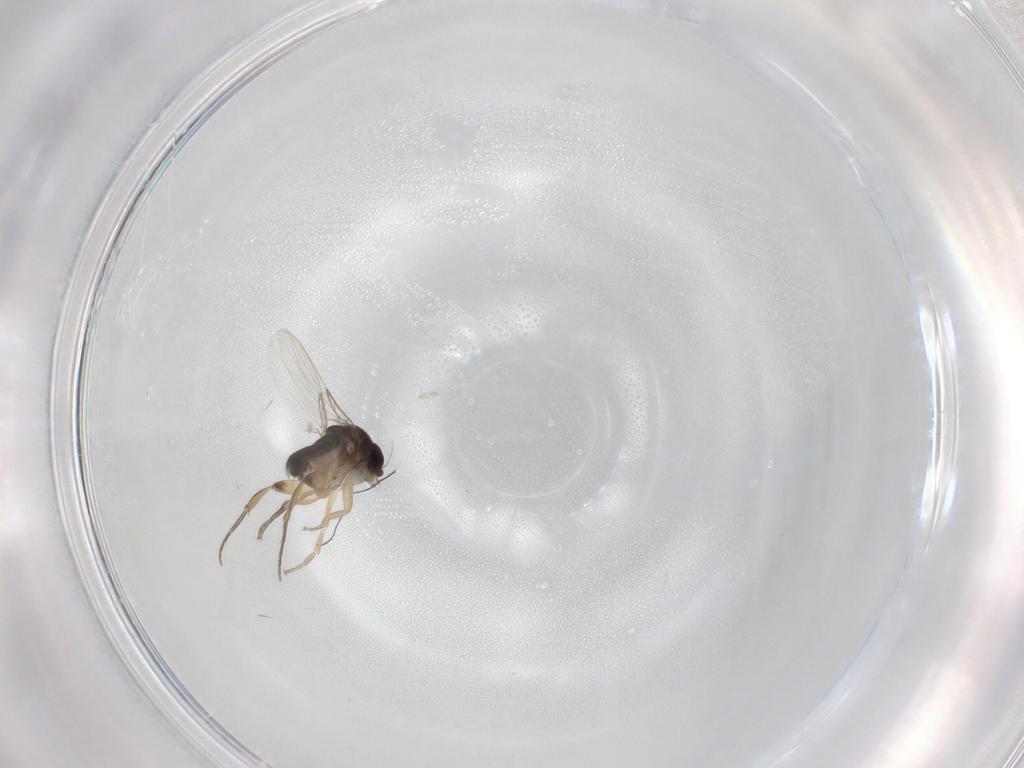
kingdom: Animalia
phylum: Arthropoda
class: Insecta
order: Diptera
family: Phoridae
